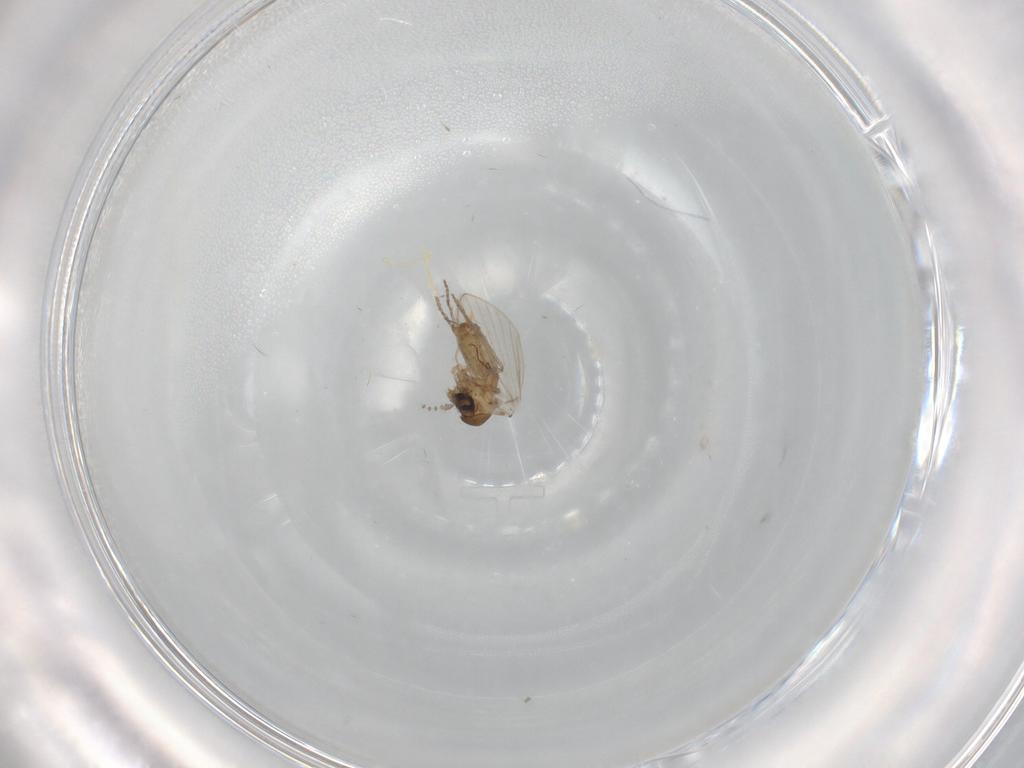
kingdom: Animalia
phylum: Arthropoda
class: Insecta
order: Diptera
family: Psychodidae
